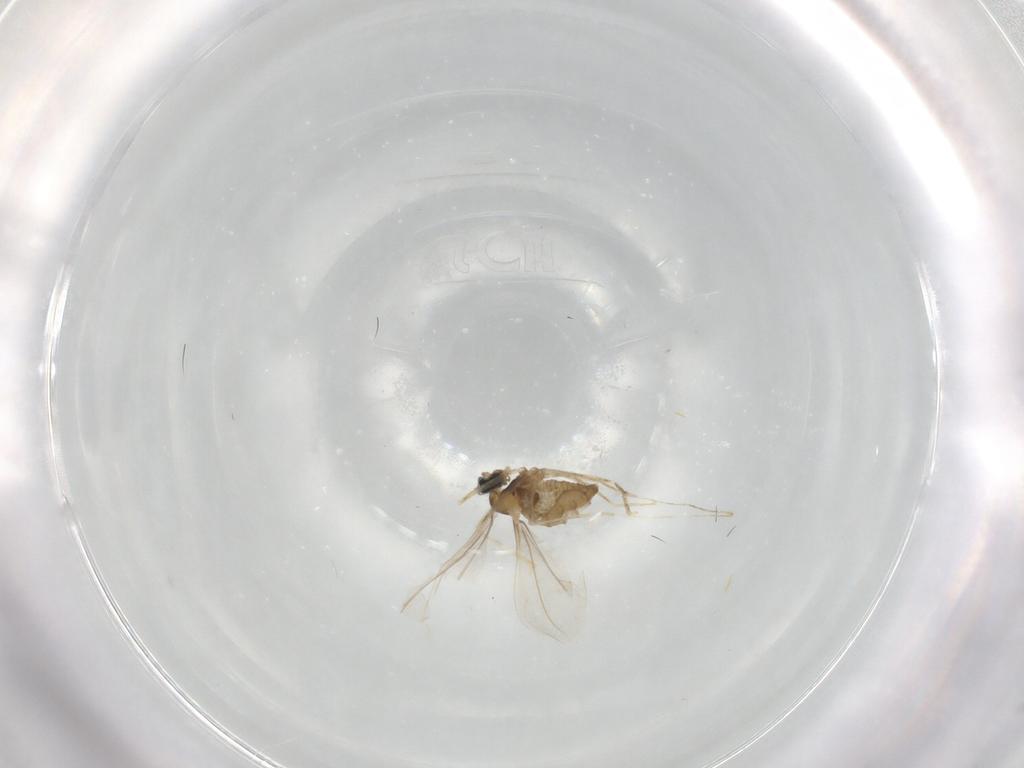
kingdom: Animalia
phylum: Arthropoda
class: Insecta
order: Diptera
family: Cecidomyiidae
